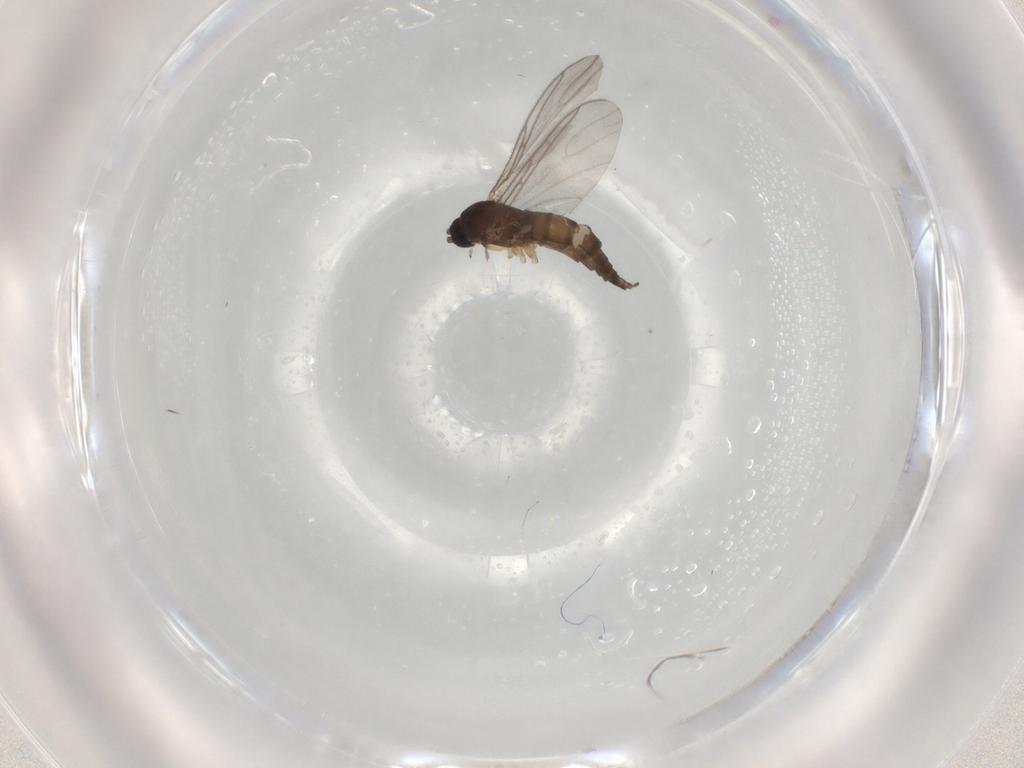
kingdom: Animalia
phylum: Arthropoda
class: Insecta
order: Diptera
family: Sciaridae
